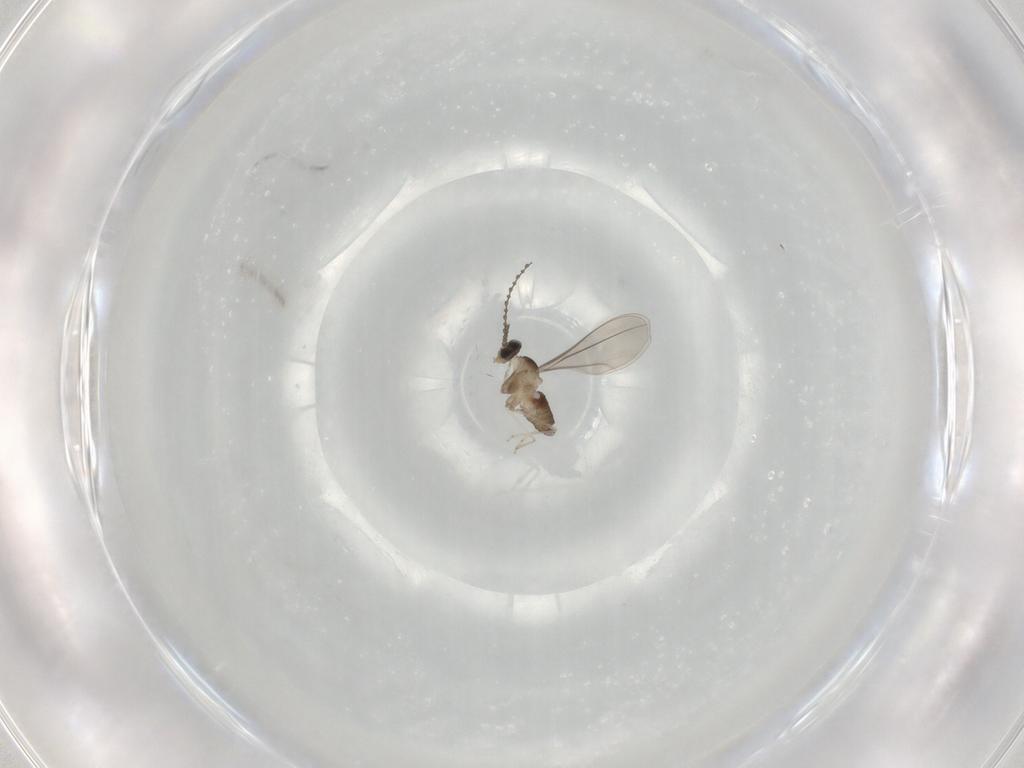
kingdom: Animalia
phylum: Arthropoda
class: Insecta
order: Diptera
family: Cecidomyiidae
